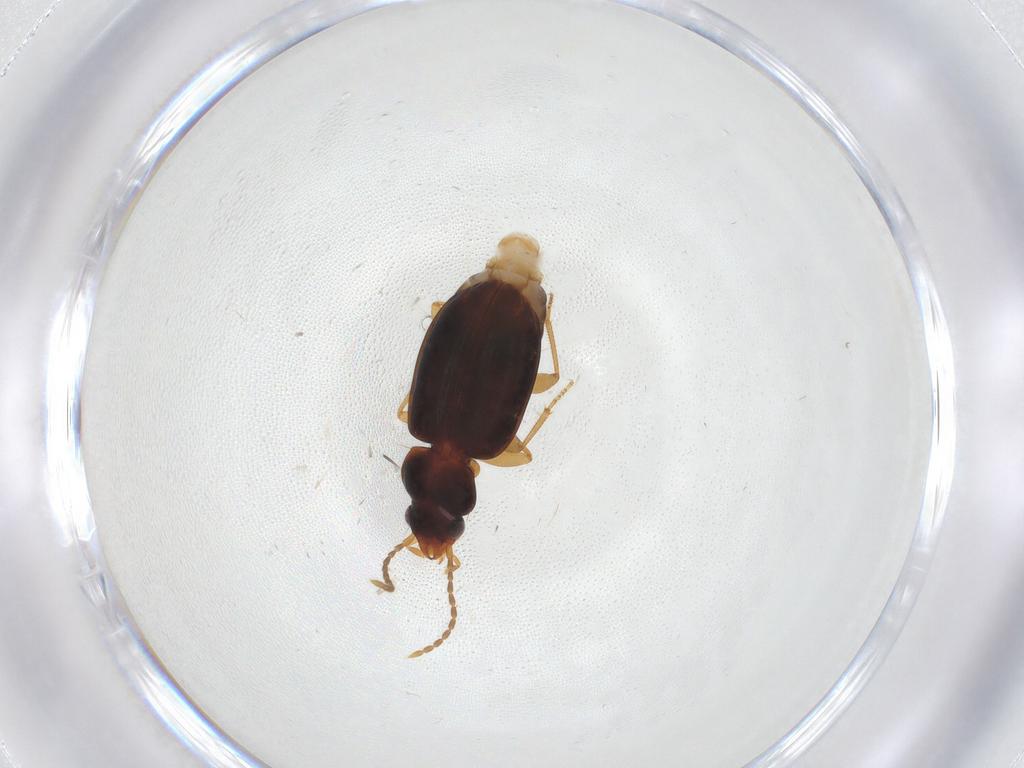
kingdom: Animalia
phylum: Arthropoda
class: Insecta
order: Coleoptera
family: Carabidae
